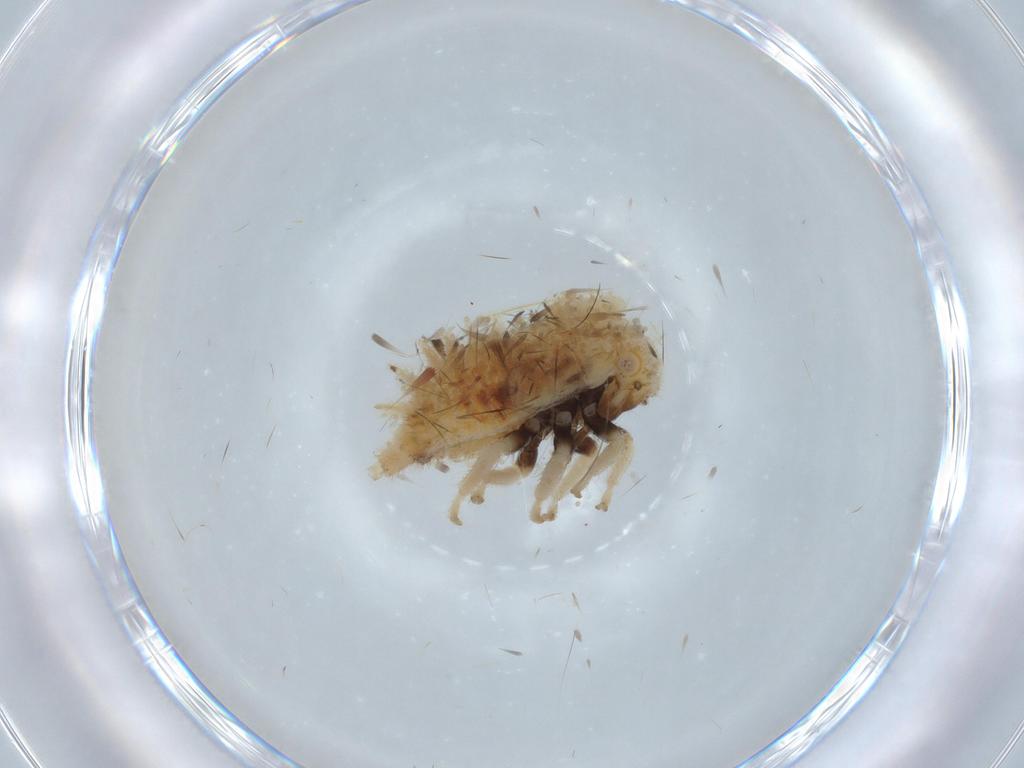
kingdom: Animalia
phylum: Arthropoda
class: Insecta
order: Hemiptera
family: Membracidae
